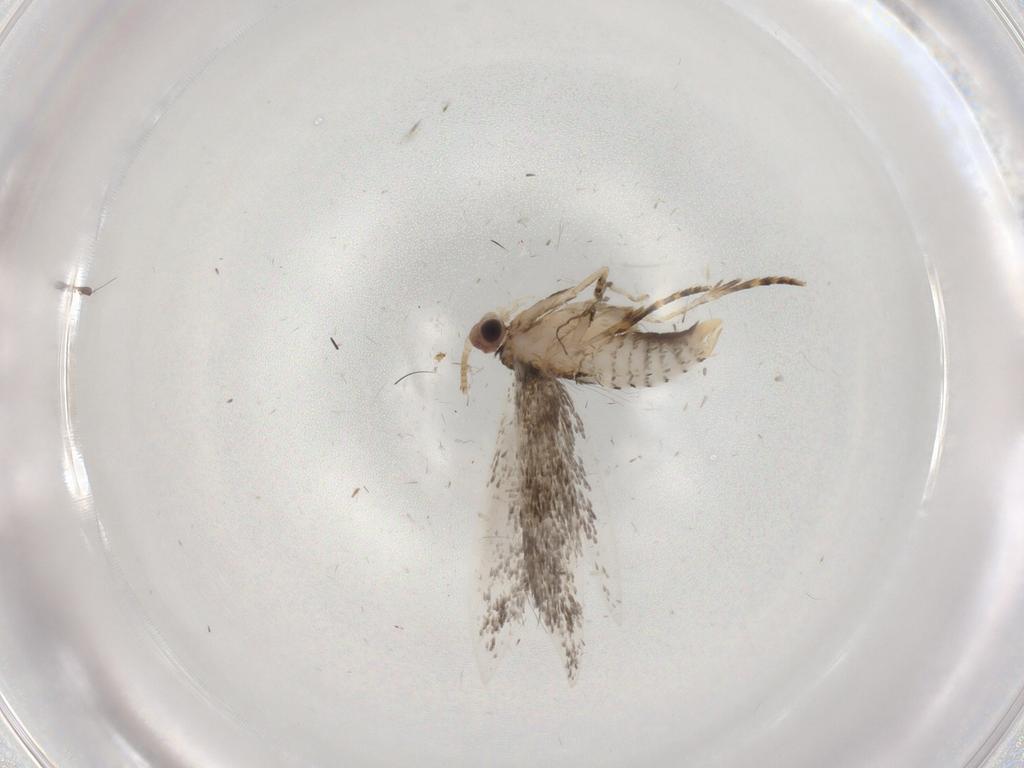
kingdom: Animalia
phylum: Arthropoda
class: Insecta
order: Lepidoptera
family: Tineidae
